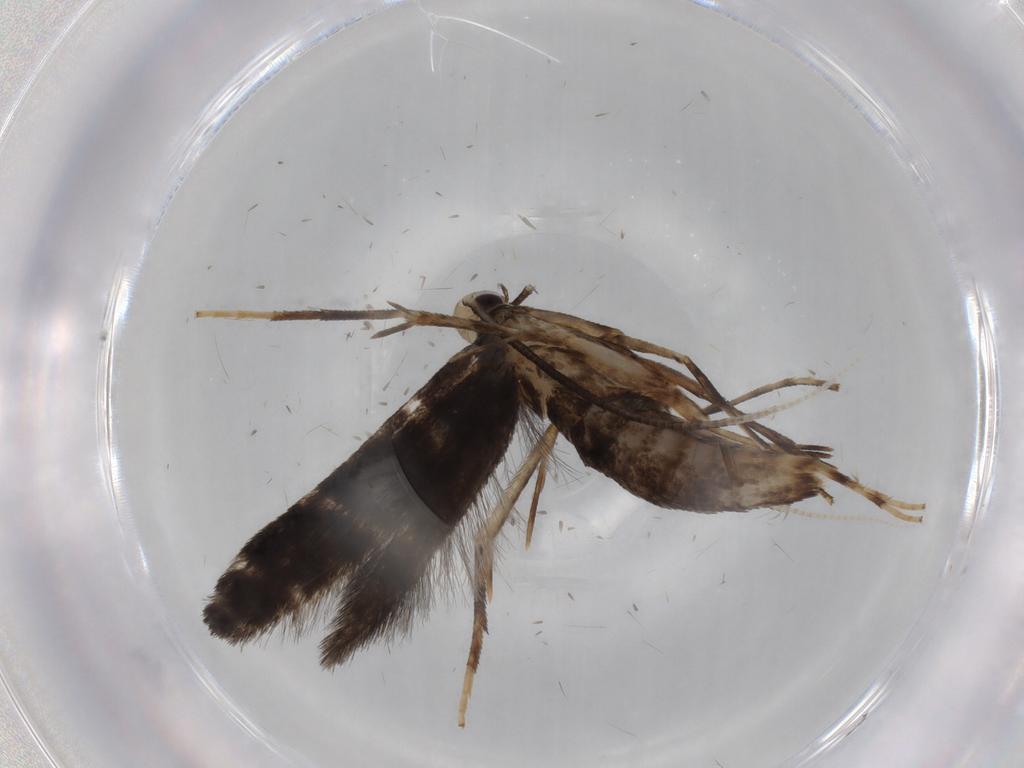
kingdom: Animalia
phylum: Arthropoda
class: Insecta
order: Lepidoptera
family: Gracillariidae
